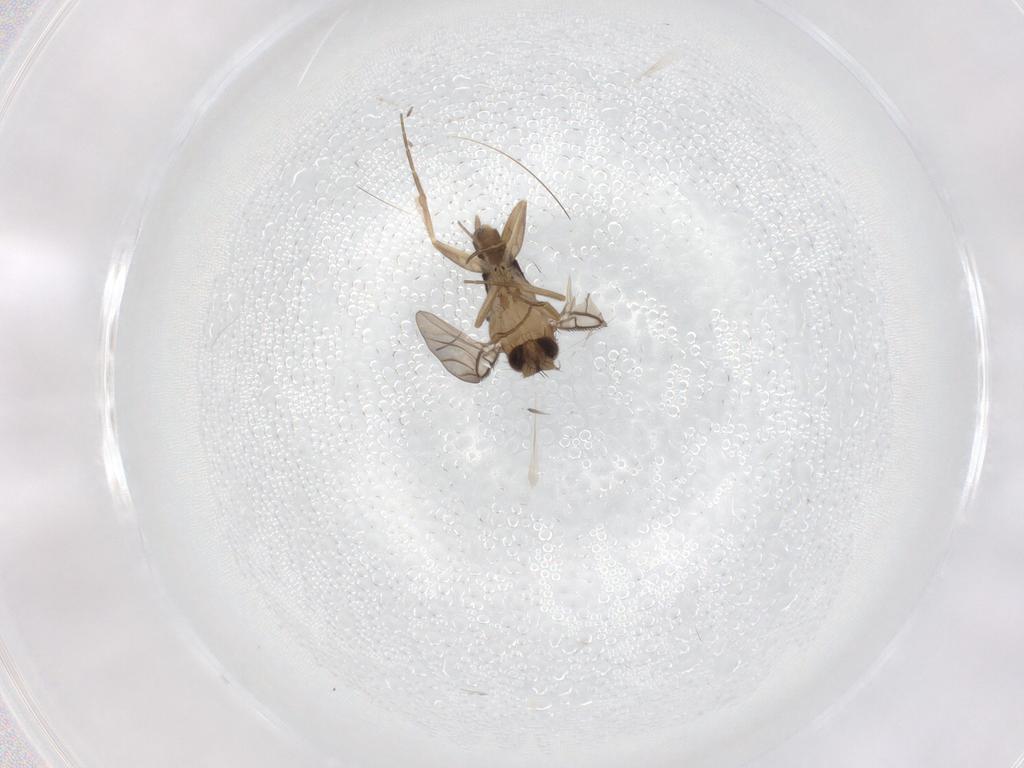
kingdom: Animalia
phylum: Arthropoda
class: Insecta
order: Diptera
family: Phoridae
